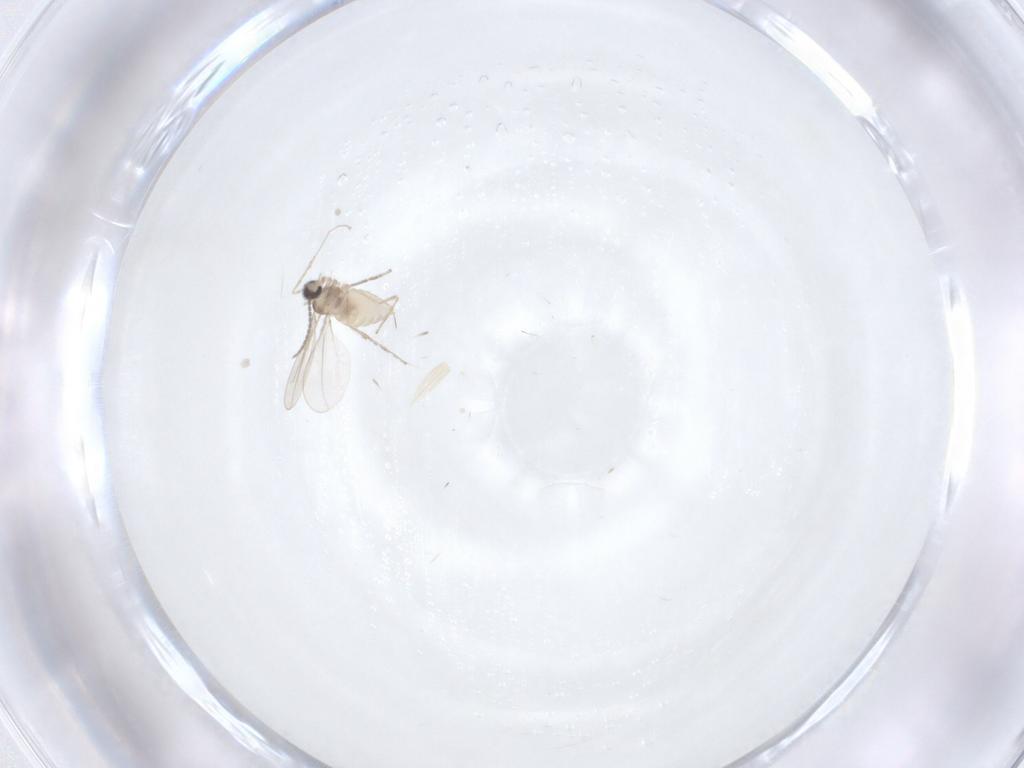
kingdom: Animalia
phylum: Arthropoda
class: Insecta
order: Diptera
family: Cecidomyiidae
